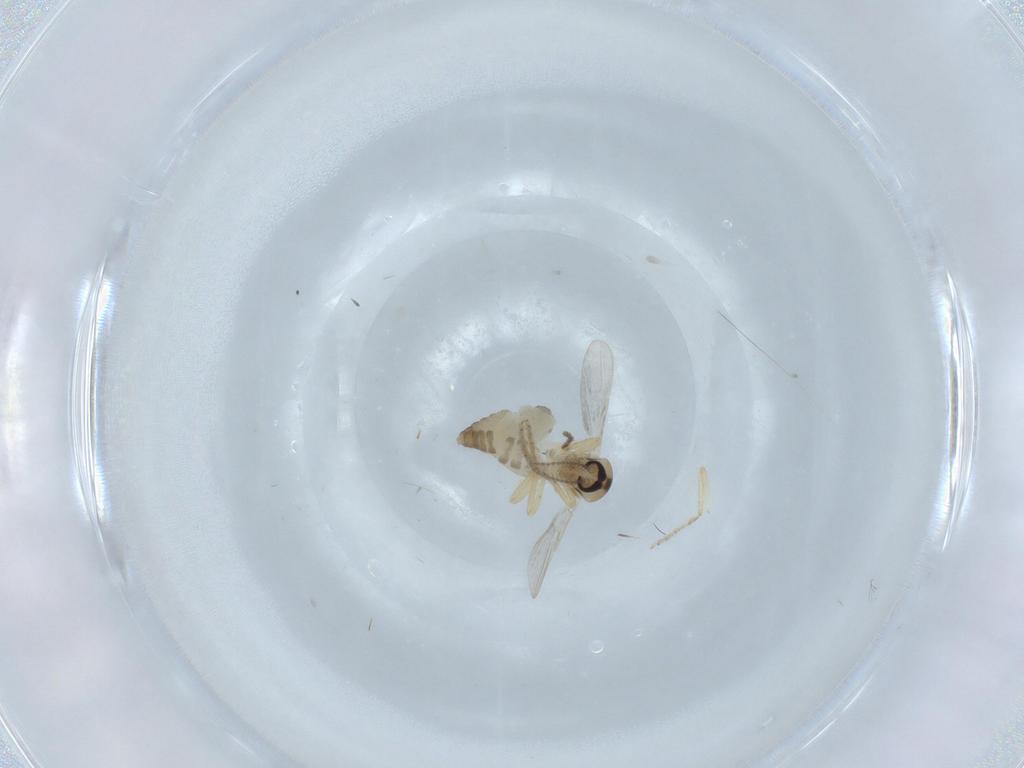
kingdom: Animalia
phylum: Arthropoda
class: Insecta
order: Diptera
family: Ceratopogonidae
